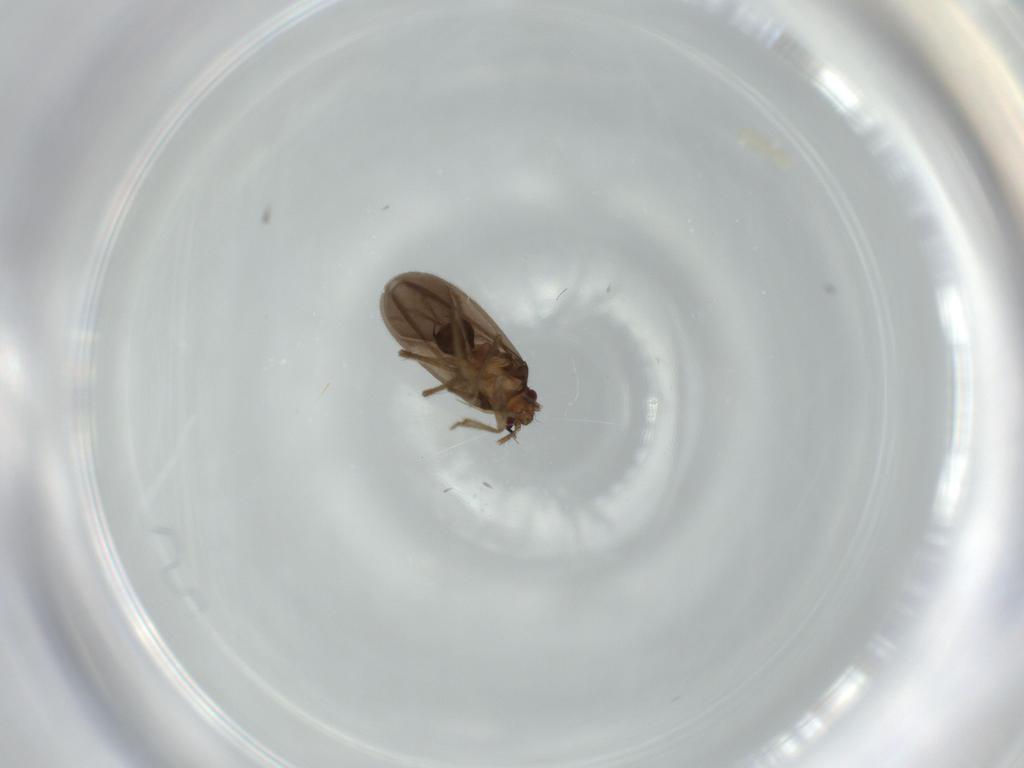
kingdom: Animalia
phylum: Arthropoda
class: Insecta
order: Hemiptera
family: Ceratocombidae
